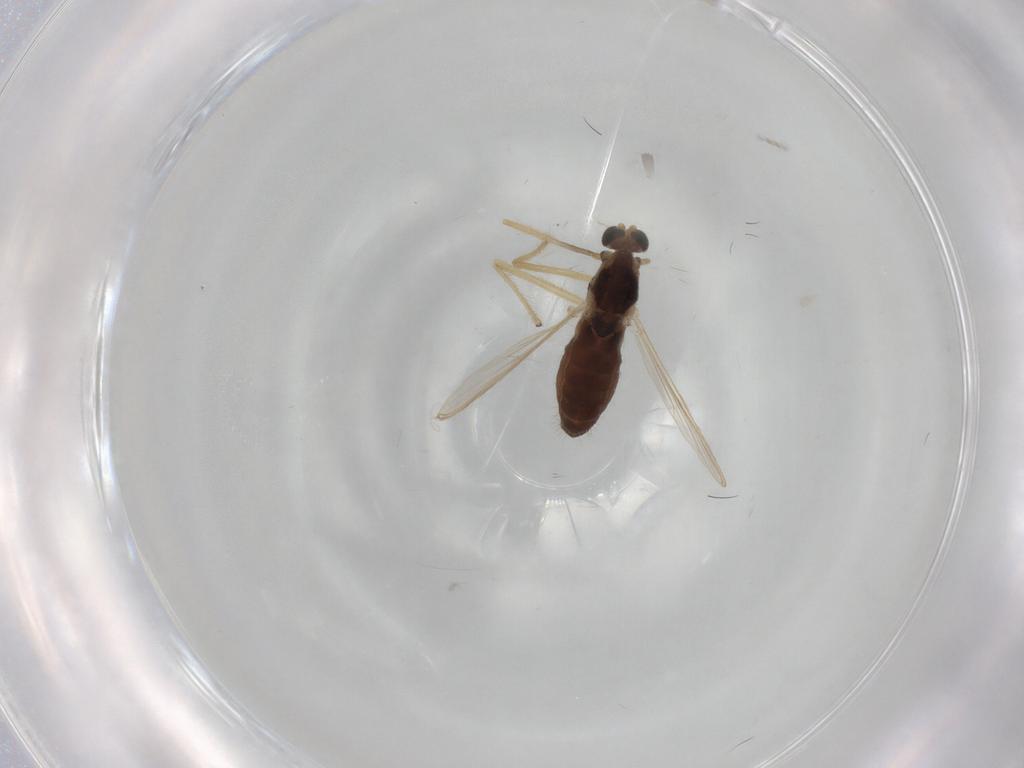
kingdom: Animalia
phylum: Arthropoda
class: Insecta
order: Diptera
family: Chironomidae
